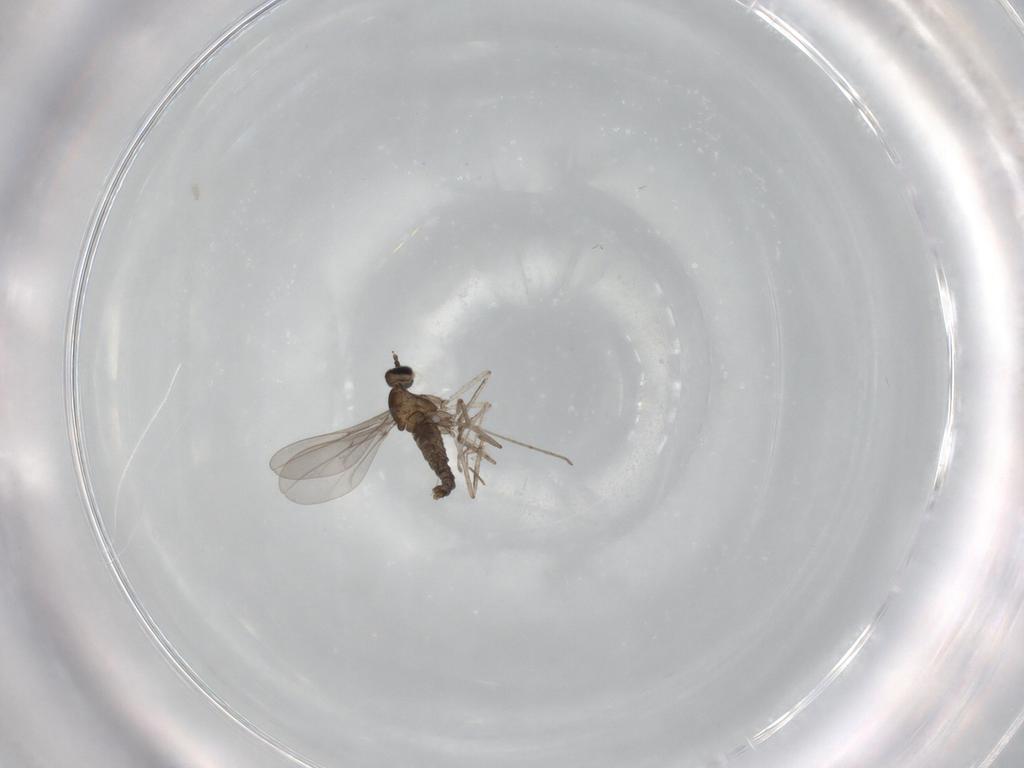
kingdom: Animalia
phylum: Arthropoda
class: Insecta
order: Diptera
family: Cecidomyiidae
